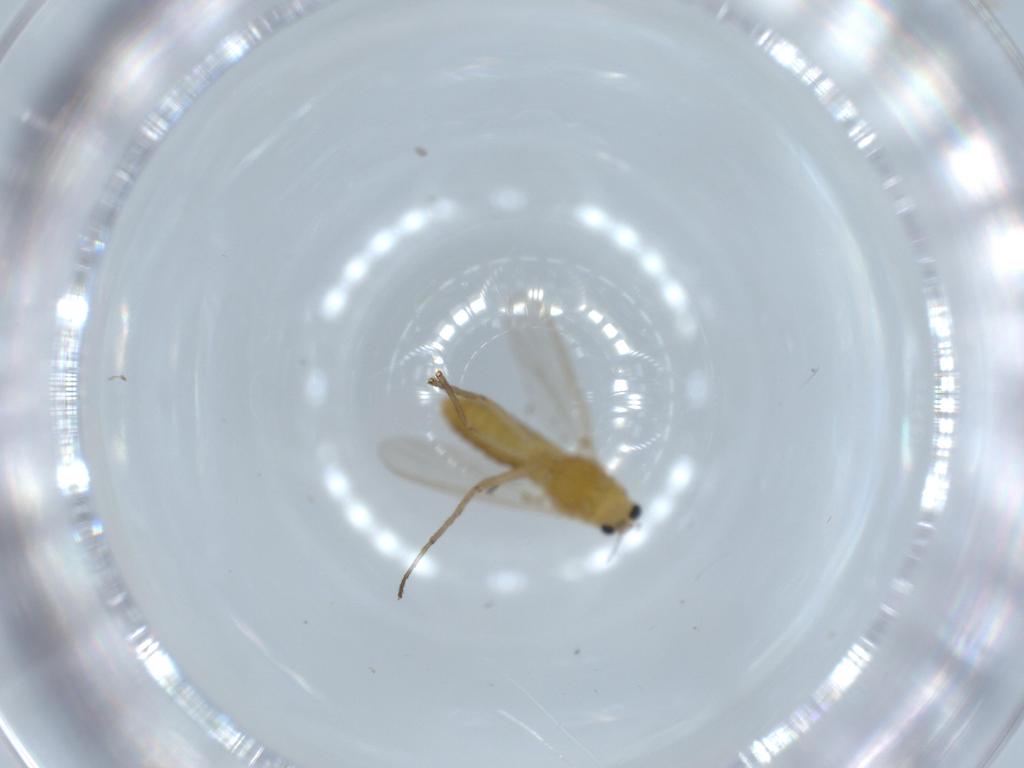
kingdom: Animalia
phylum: Arthropoda
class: Insecta
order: Diptera
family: Chironomidae
